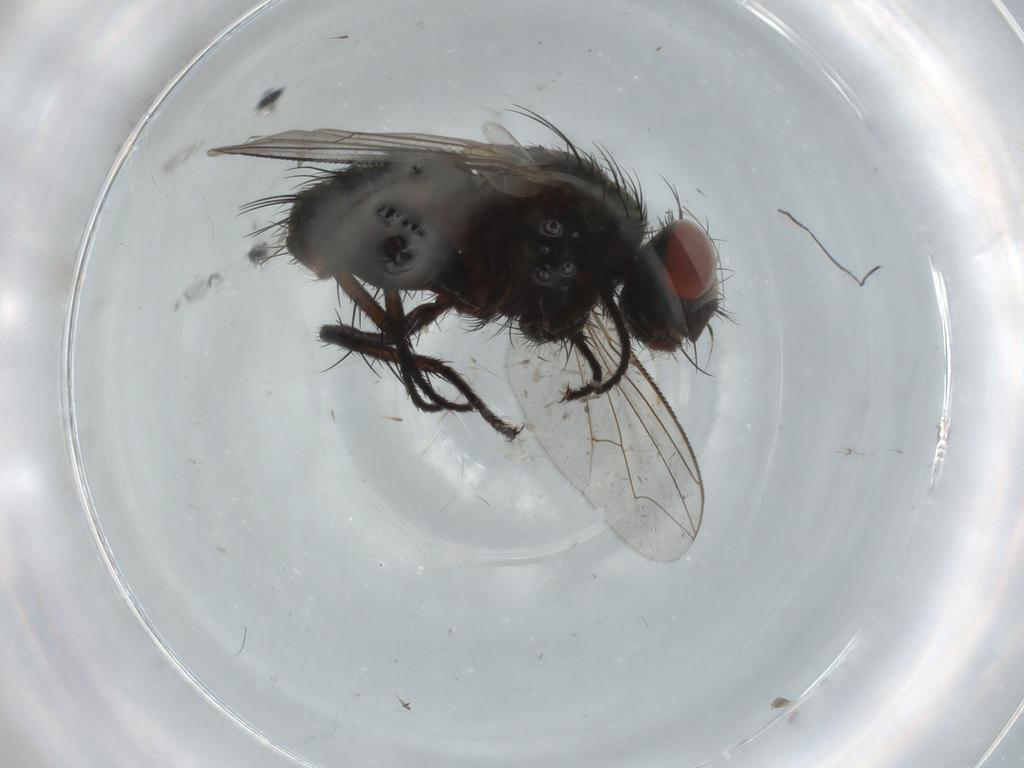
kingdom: Animalia
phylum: Arthropoda
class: Insecta
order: Diptera
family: Sarcophagidae
